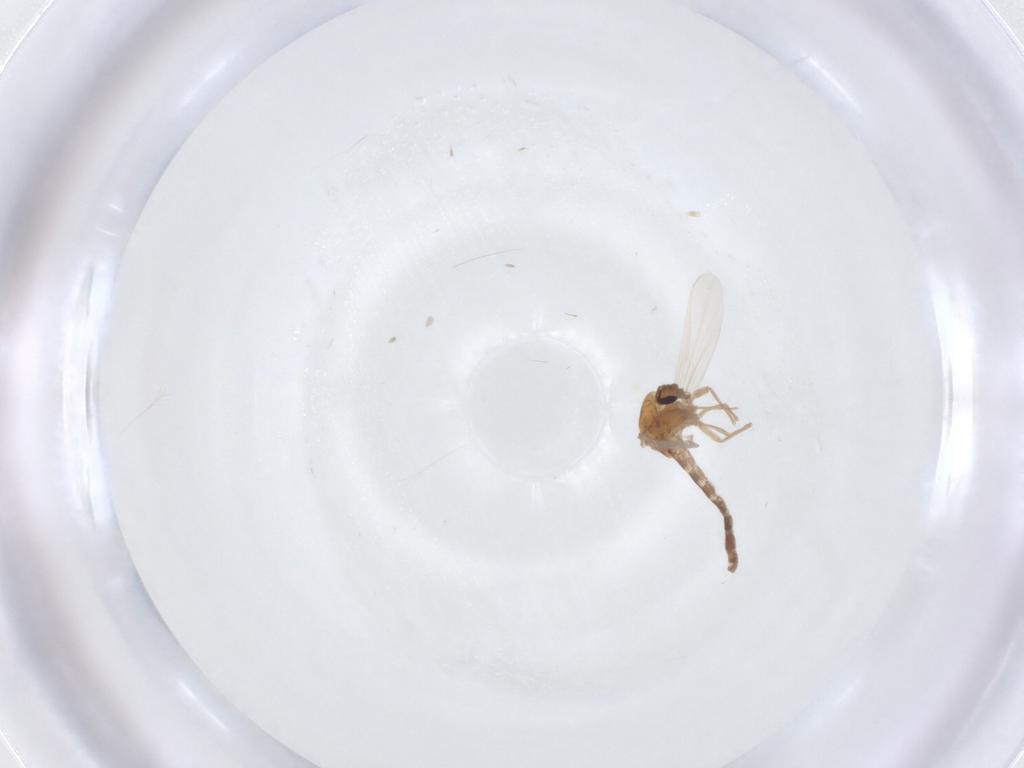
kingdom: Animalia
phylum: Arthropoda
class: Insecta
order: Diptera
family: Chironomidae
